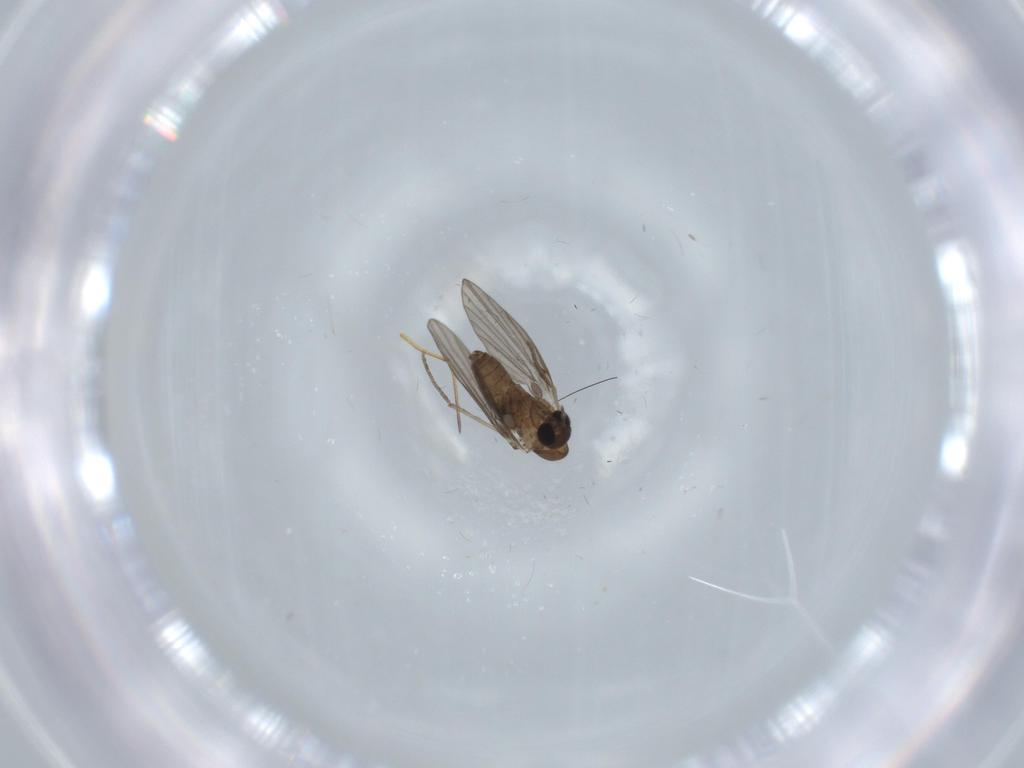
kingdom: Animalia
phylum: Arthropoda
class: Insecta
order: Diptera
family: Psychodidae
